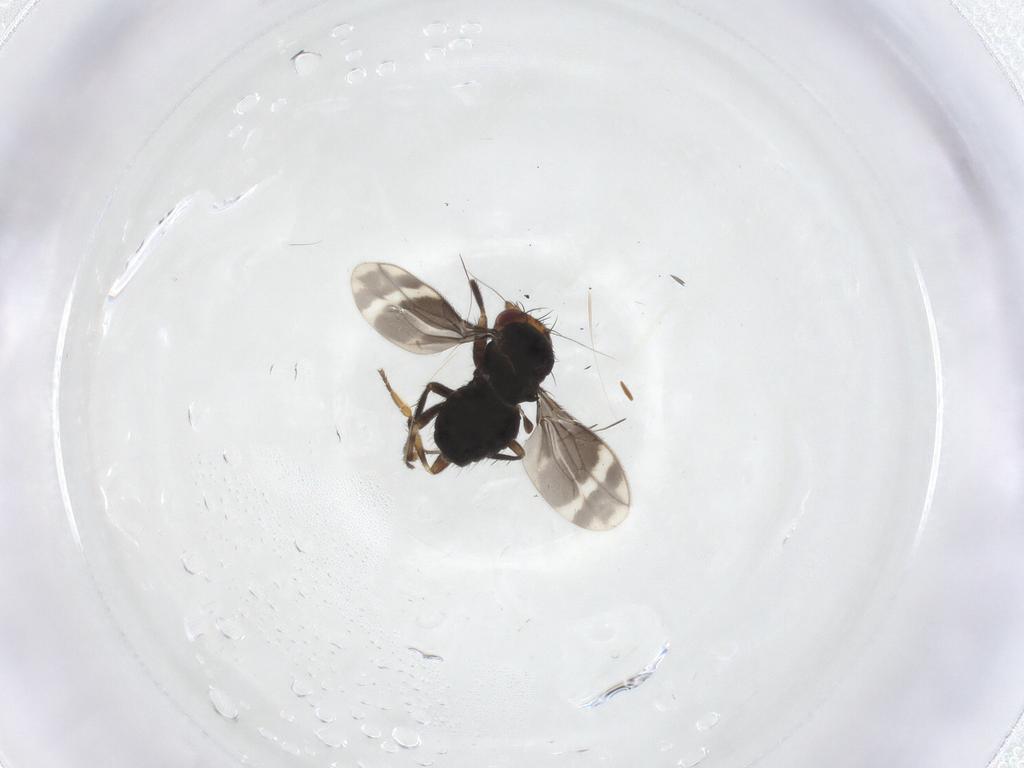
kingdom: Animalia
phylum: Arthropoda
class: Insecta
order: Diptera
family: Sphaeroceridae
